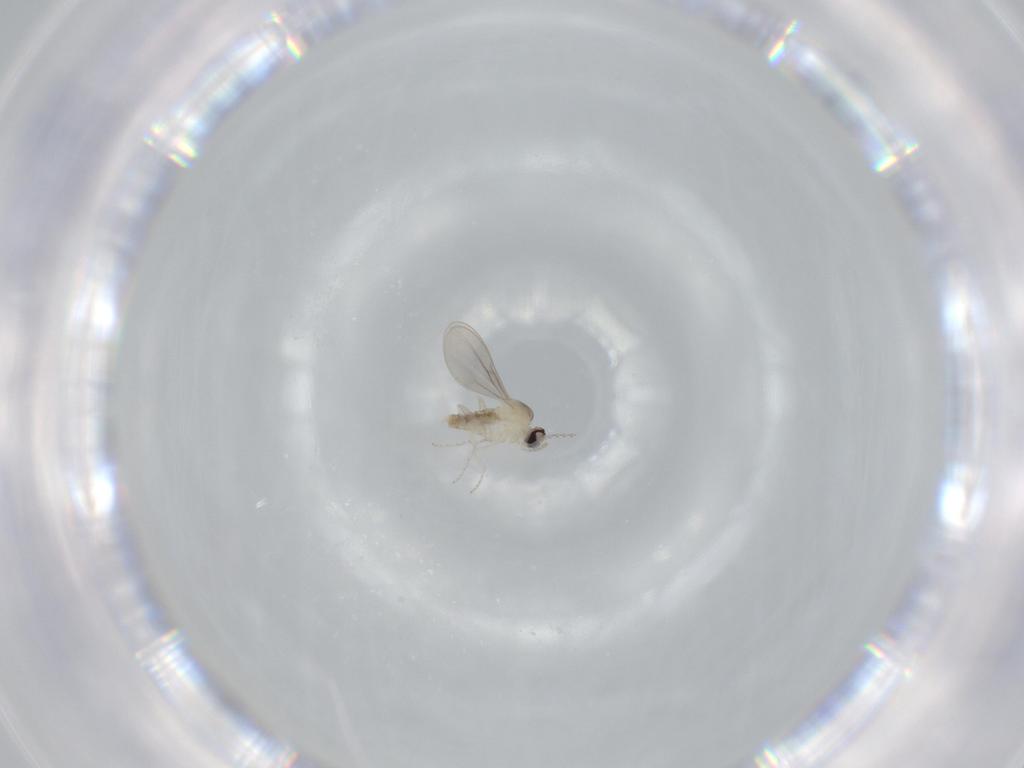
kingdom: Animalia
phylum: Arthropoda
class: Insecta
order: Diptera
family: Cecidomyiidae
